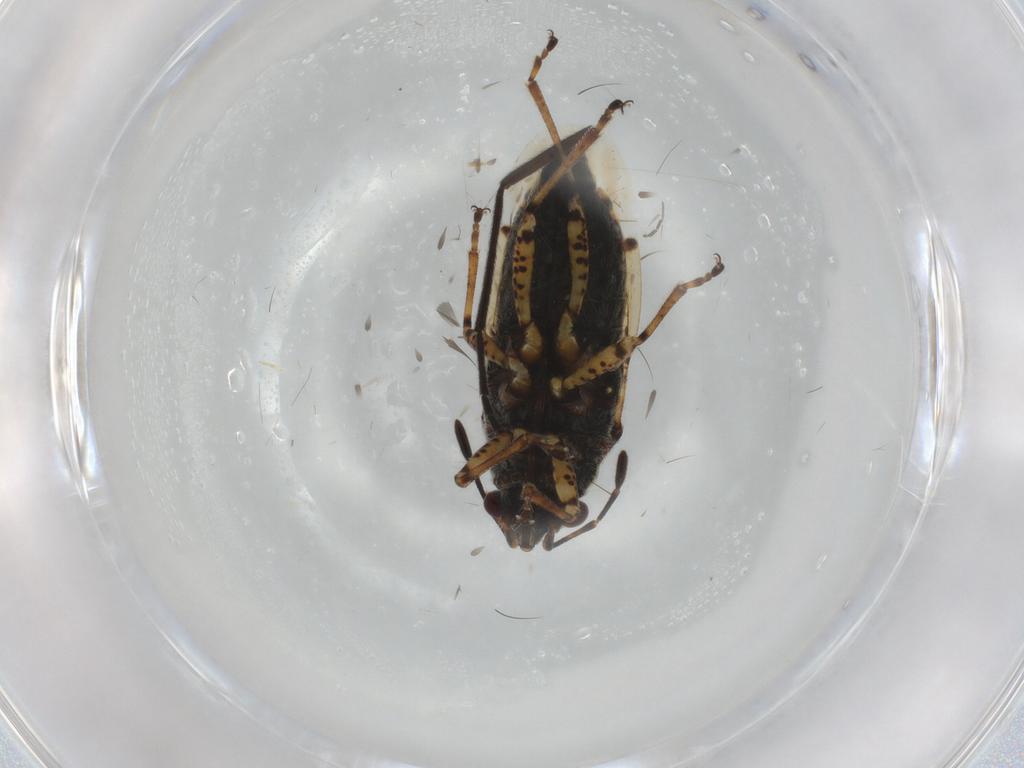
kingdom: Animalia
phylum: Arthropoda
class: Insecta
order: Hemiptera
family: Lygaeidae
